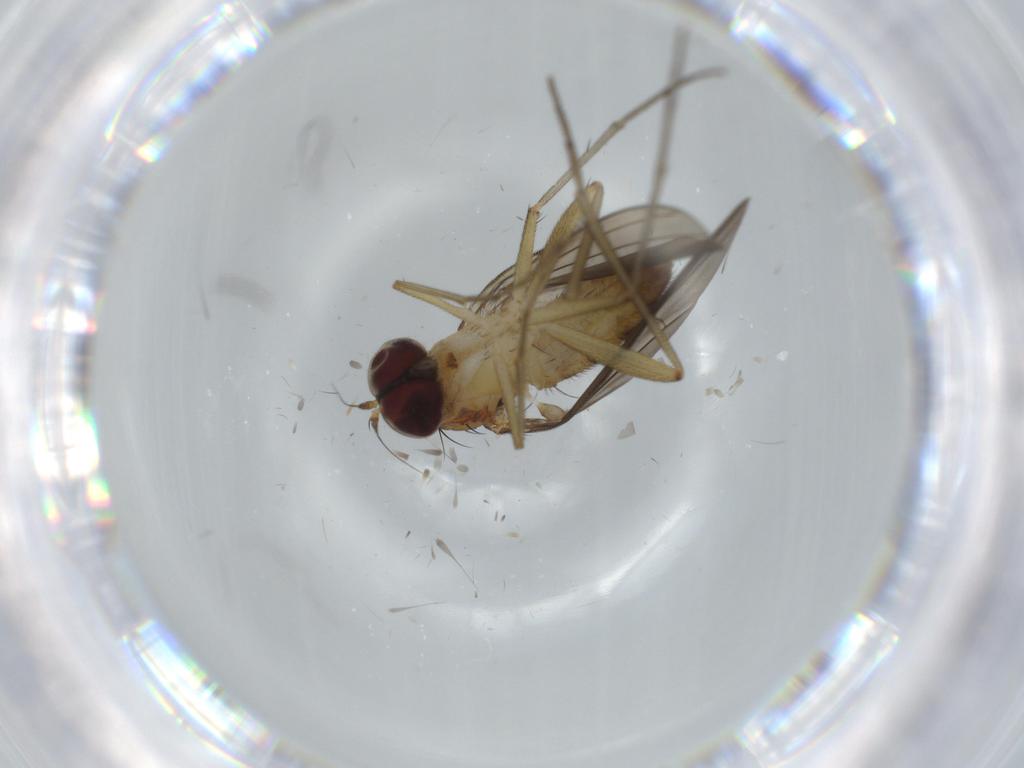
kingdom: Animalia
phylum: Arthropoda
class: Insecta
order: Diptera
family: Dolichopodidae
